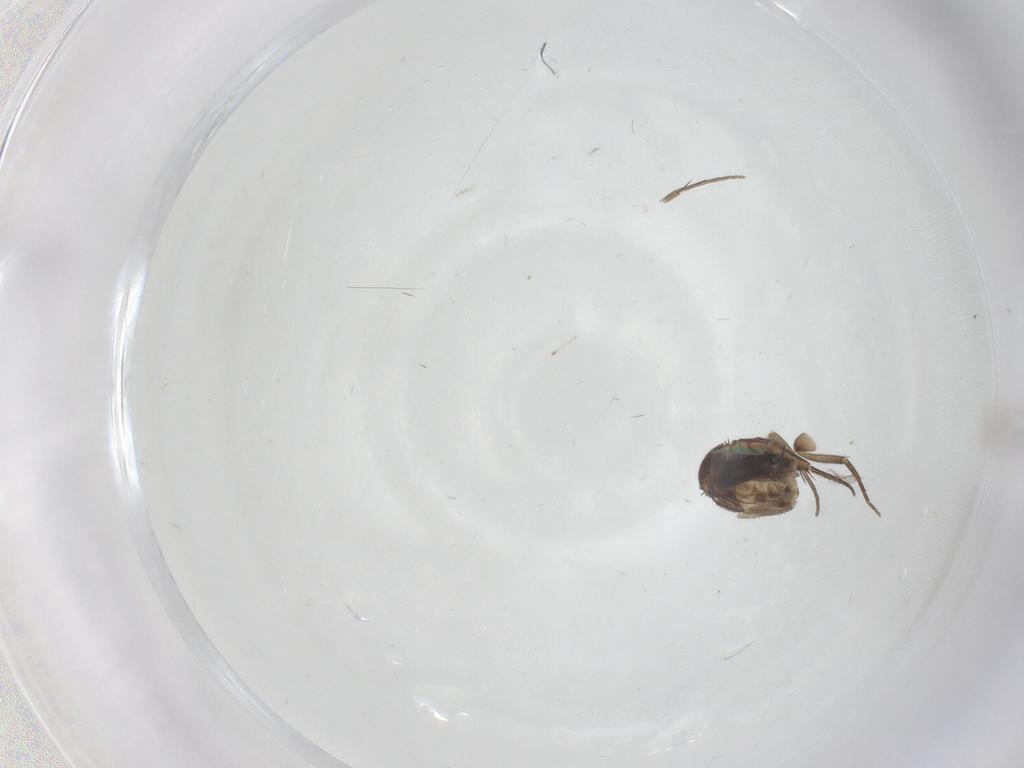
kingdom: Animalia
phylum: Arthropoda
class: Insecta
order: Diptera
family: Phoridae
